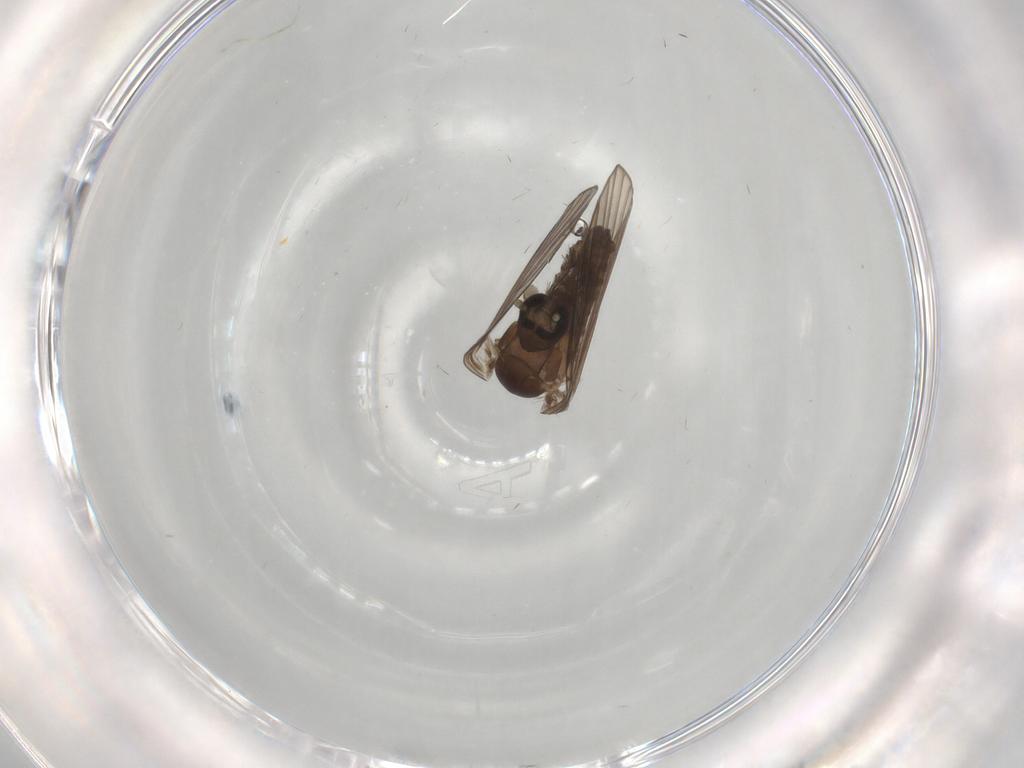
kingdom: Animalia
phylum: Arthropoda
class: Insecta
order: Diptera
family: Psychodidae
